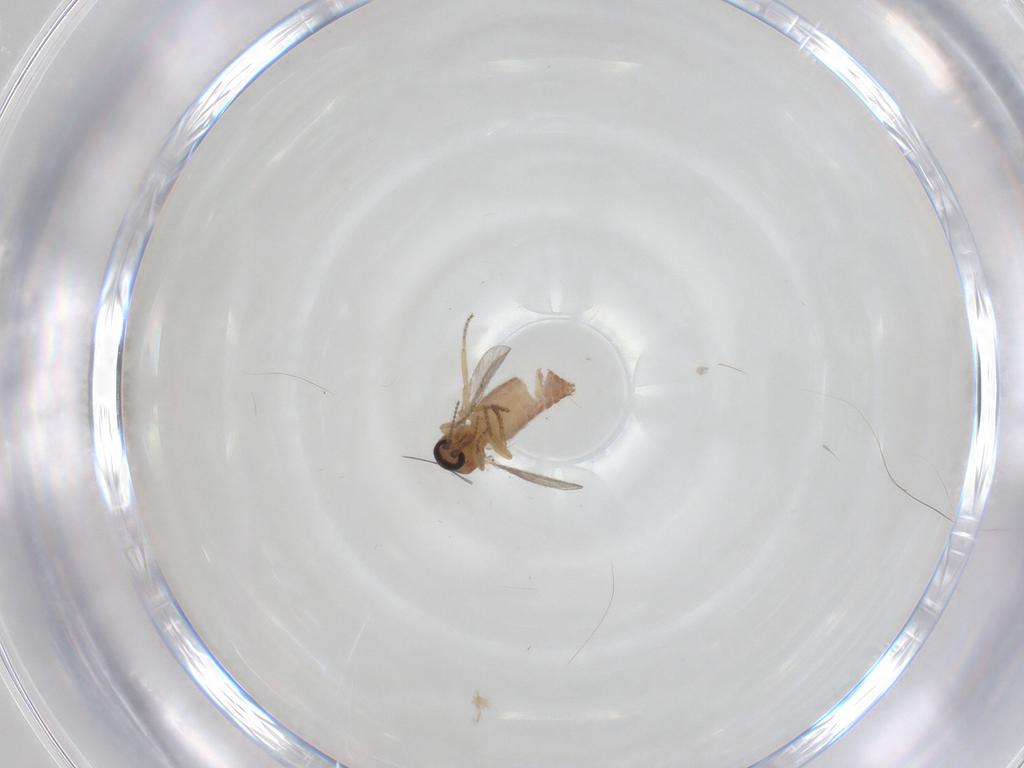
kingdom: Animalia
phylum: Arthropoda
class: Insecta
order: Diptera
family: Ceratopogonidae
